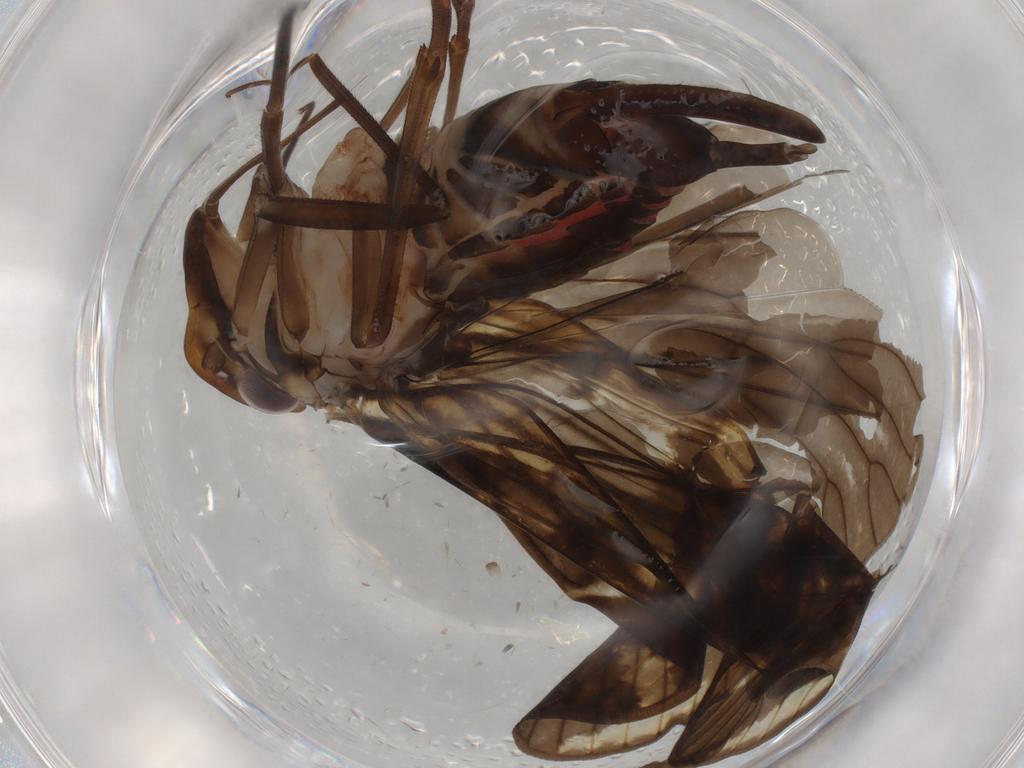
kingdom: Animalia
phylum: Arthropoda
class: Insecta
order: Hemiptera
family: Cixiidae
